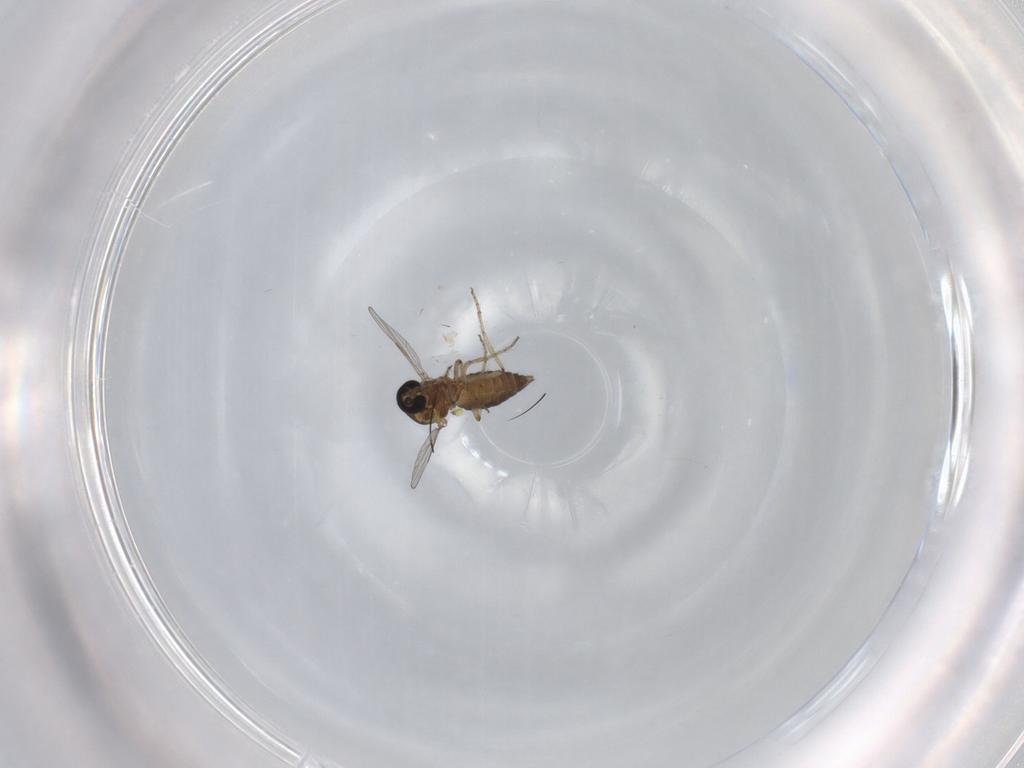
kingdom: Animalia
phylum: Arthropoda
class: Insecta
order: Diptera
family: Ceratopogonidae
